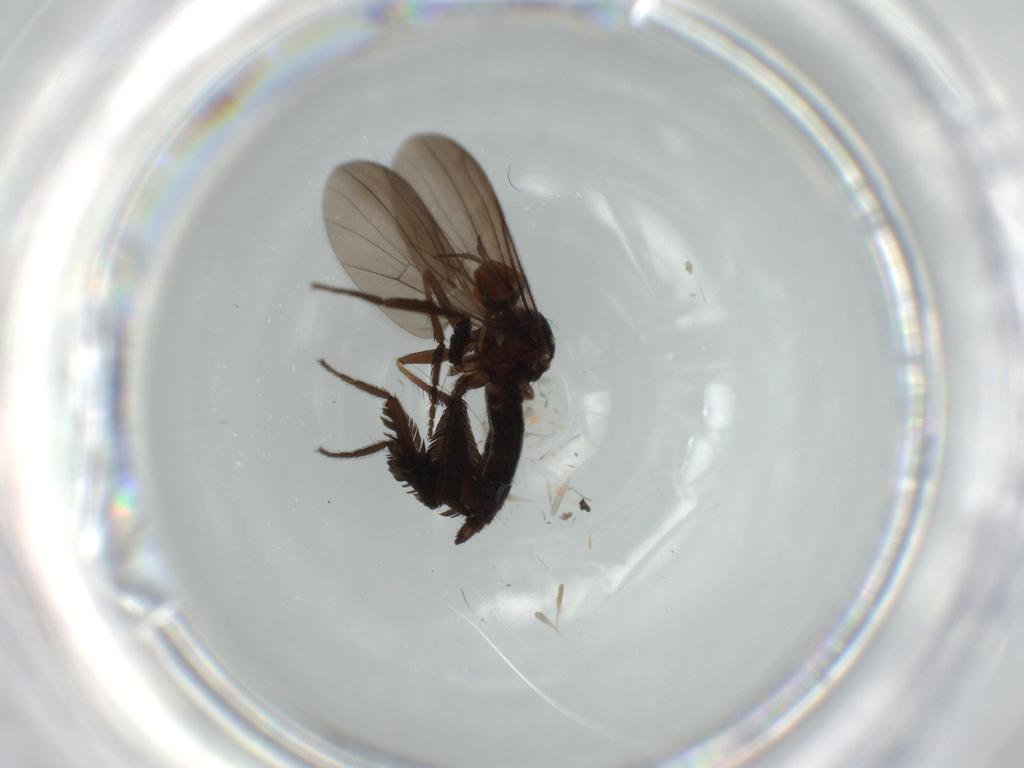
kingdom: Animalia
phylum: Arthropoda
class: Insecta
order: Diptera
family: Empididae
